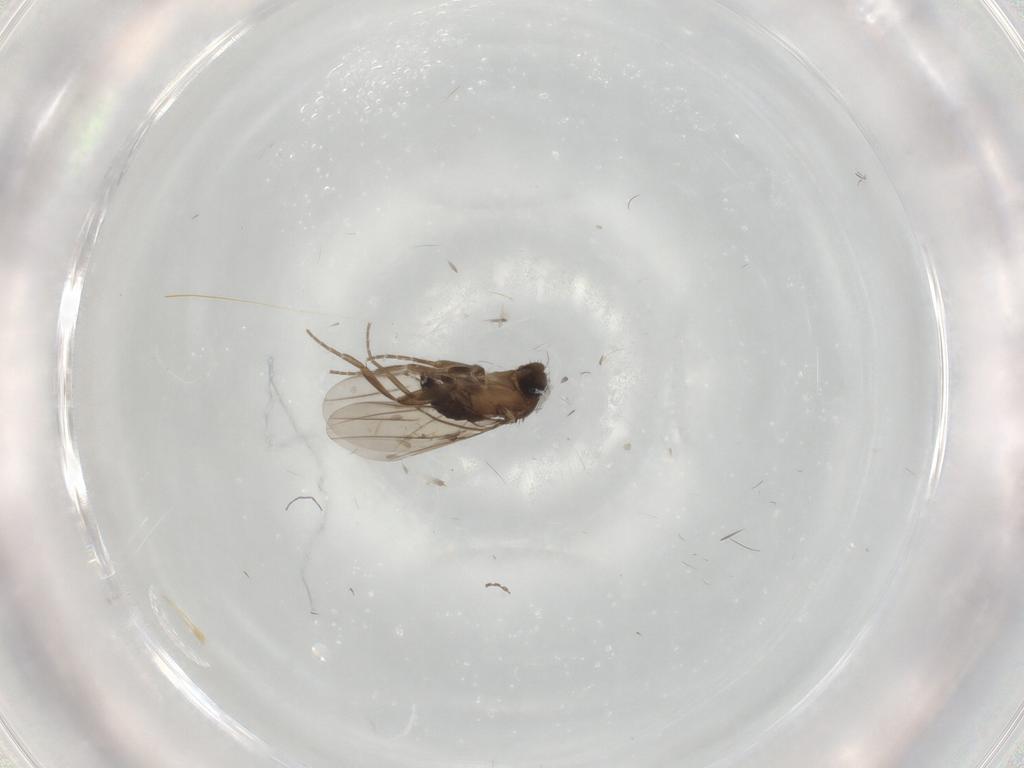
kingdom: Animalia
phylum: Arthropoda
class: Insecta
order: Diptera
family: Phoridae
